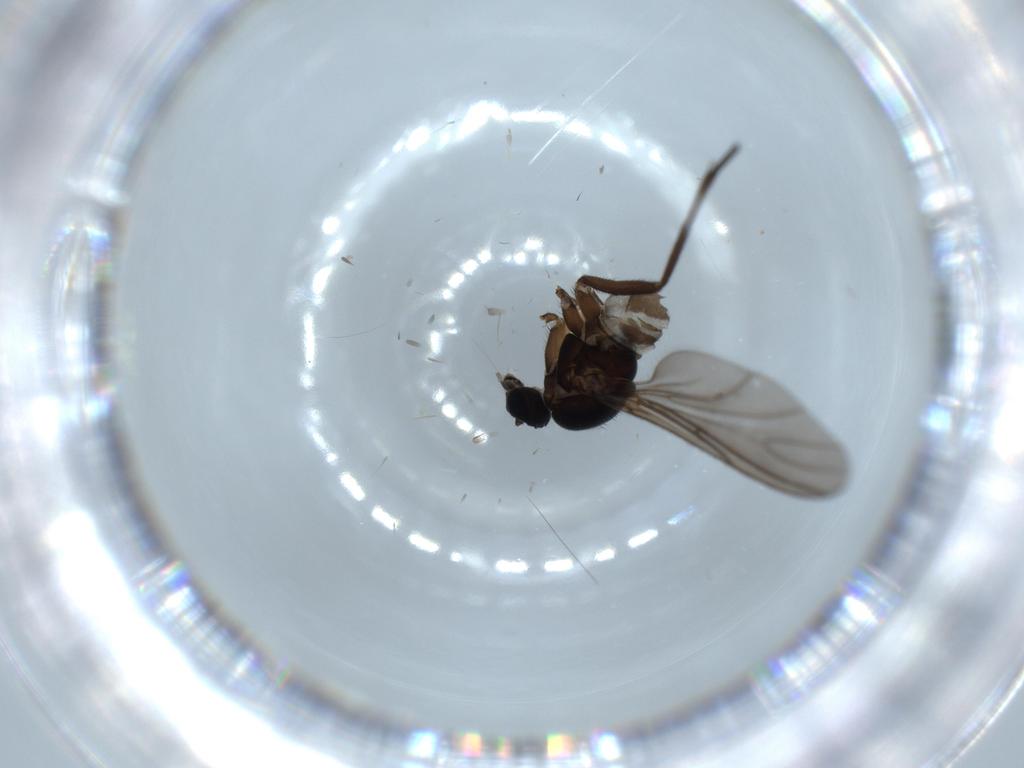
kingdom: Animalia
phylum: Arthropoda
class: Insecta
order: Diptera
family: Sciaridae
